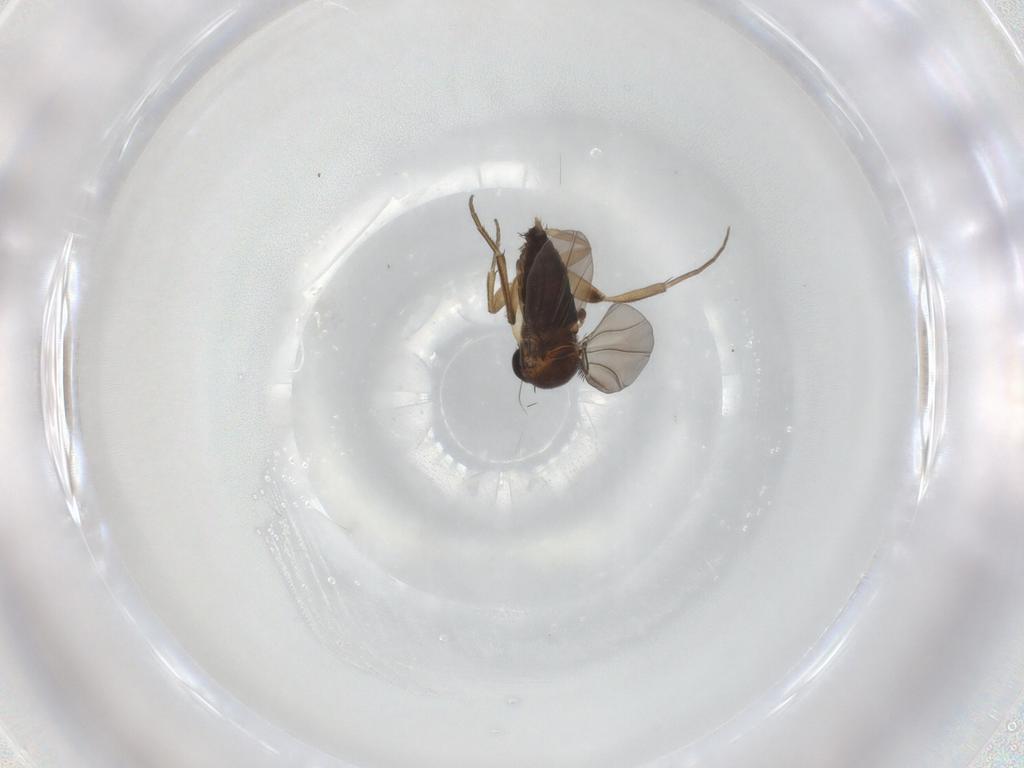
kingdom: Animalia
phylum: Arthropoda
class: Insecta
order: Diptera
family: Phoridae
